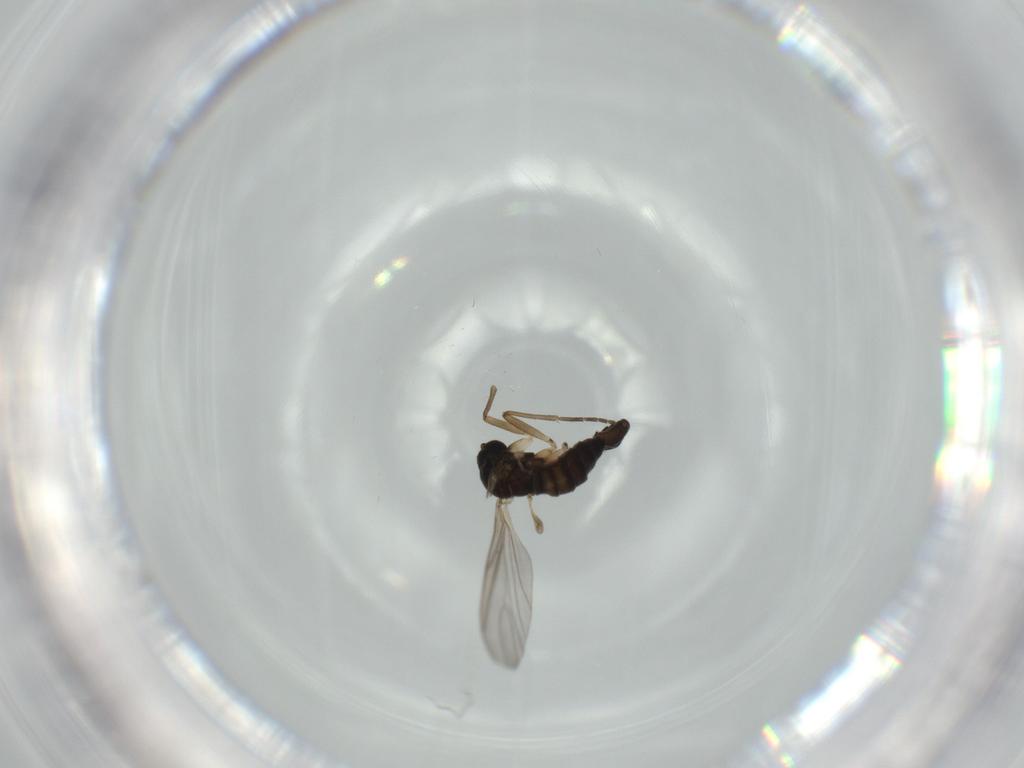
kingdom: Animalia
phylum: Arthropoda
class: Insecta
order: Diptera
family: Sciaridae
